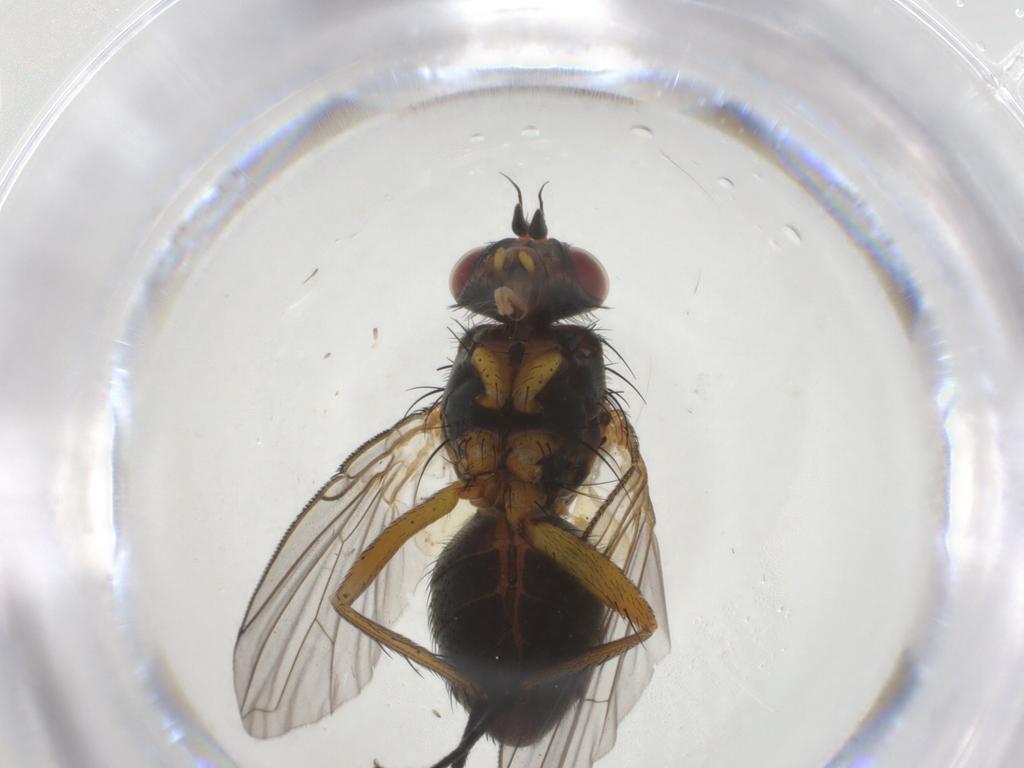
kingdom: Animalia
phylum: Arthropoda
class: Insecta
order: Diptera
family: Anthomyiidae
